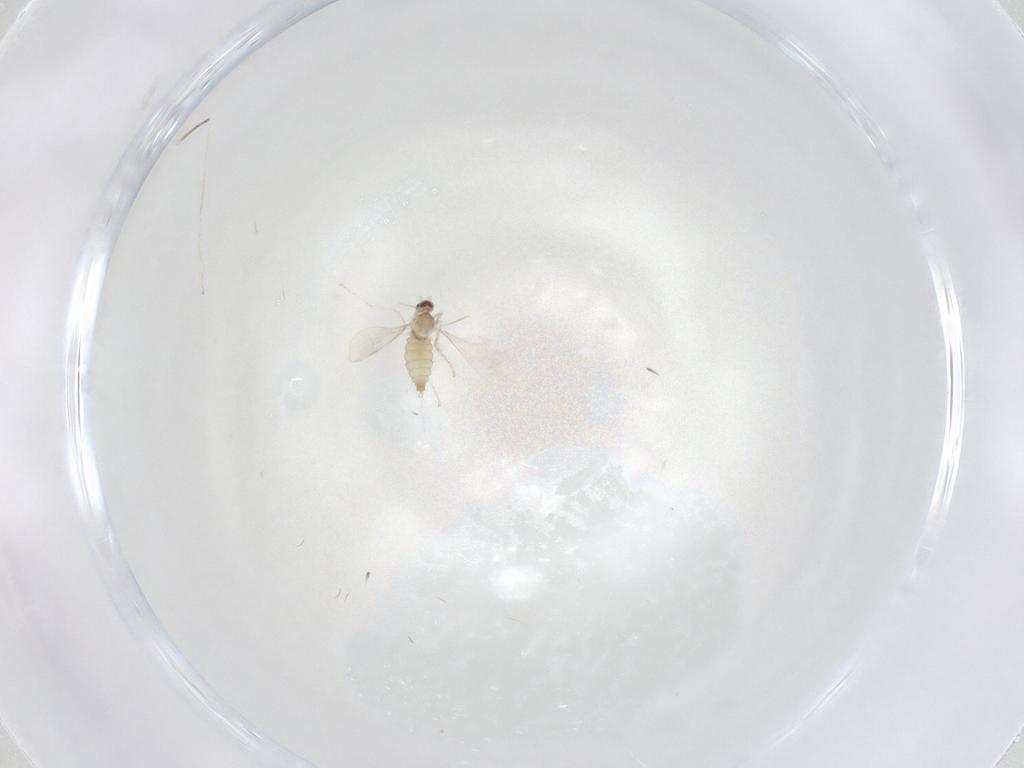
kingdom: Animalia
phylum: Arthropoda
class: Insecta
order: Diptera
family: Cecidomyiidae
